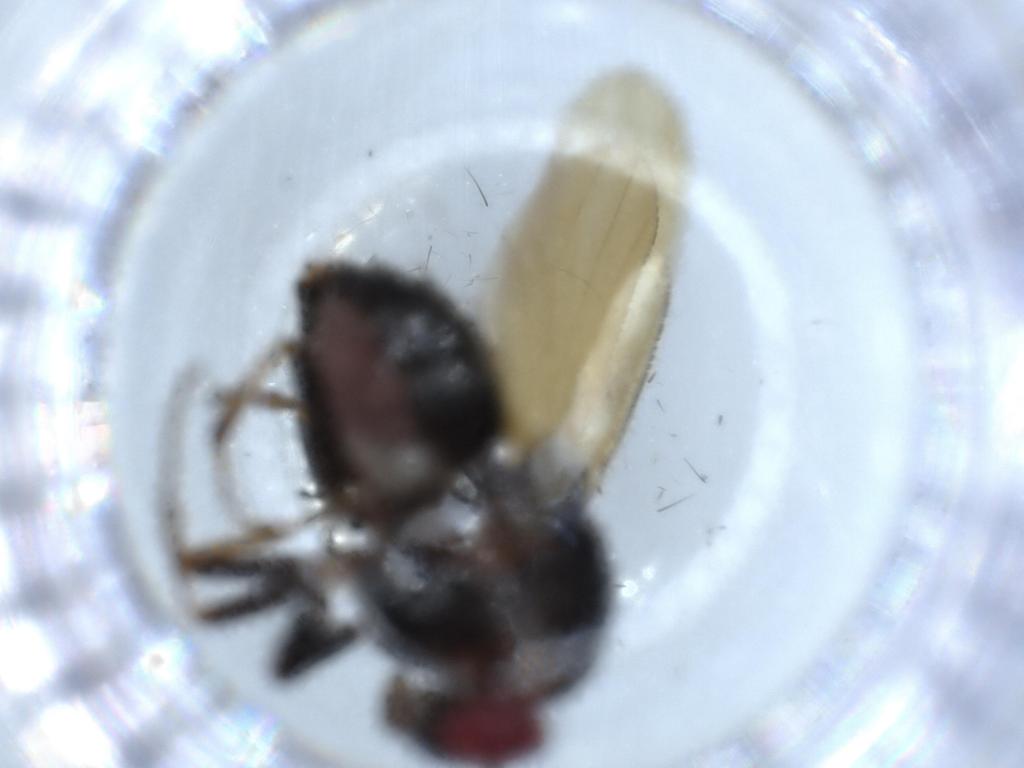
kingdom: Animalia
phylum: Arthropoda
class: Insecta
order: Diptera
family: Lauxaniidae
